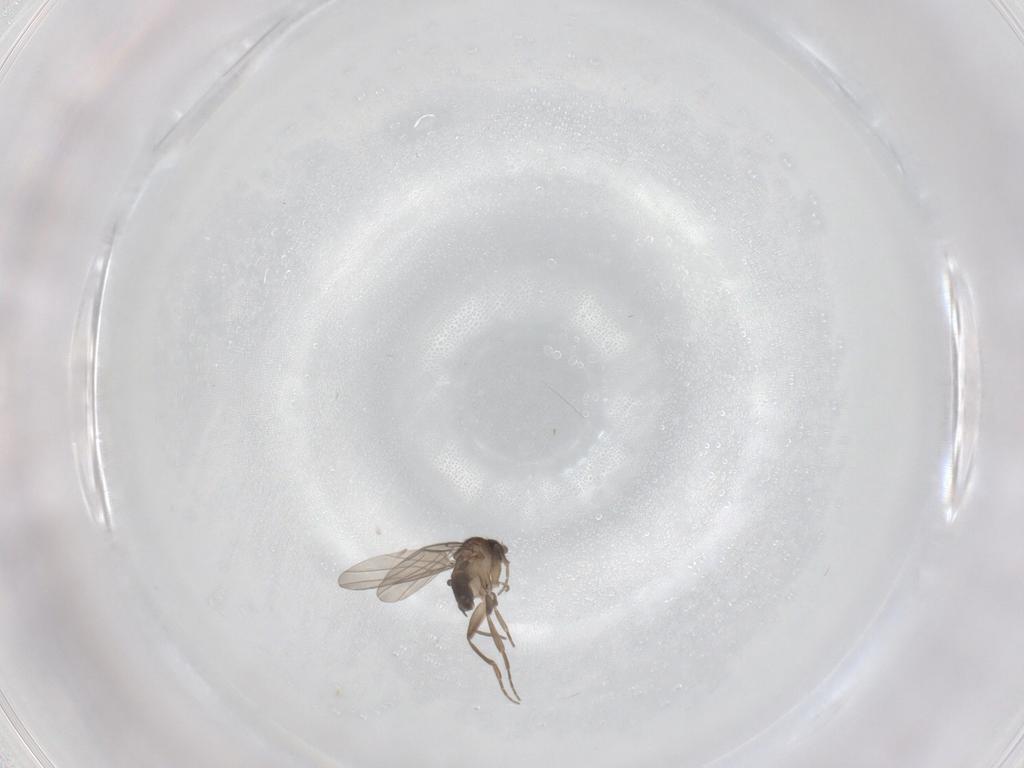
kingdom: Animalia
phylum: Arthropoda
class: Insecta
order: Diptera
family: Phoridae
